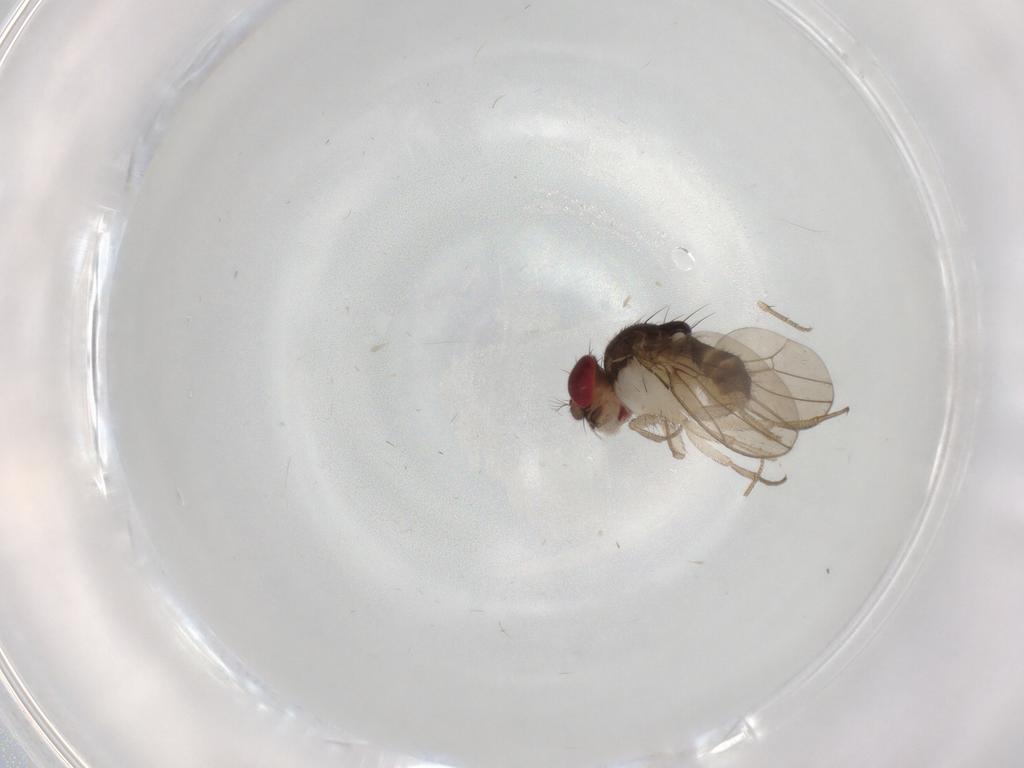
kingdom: Animalia
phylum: Arthropoda
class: Insecta
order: Diptera
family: Drosophilidae
